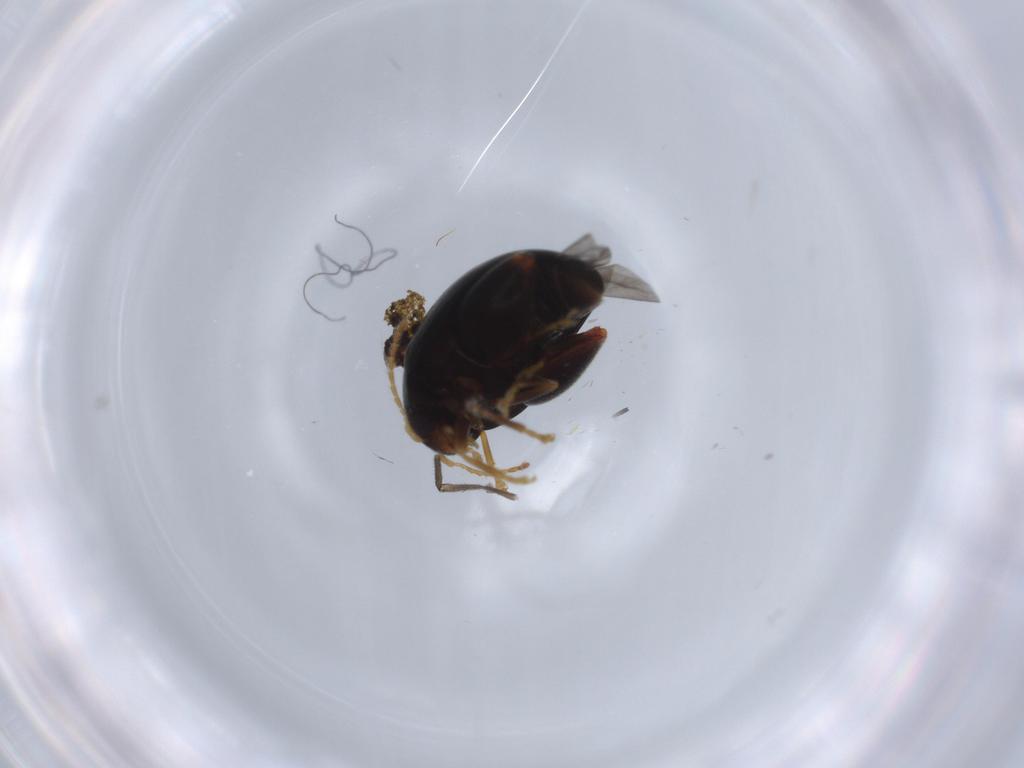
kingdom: Animalia
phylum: Arthropoda
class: Insecta
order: Coleoptera
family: Chrysomelidae
